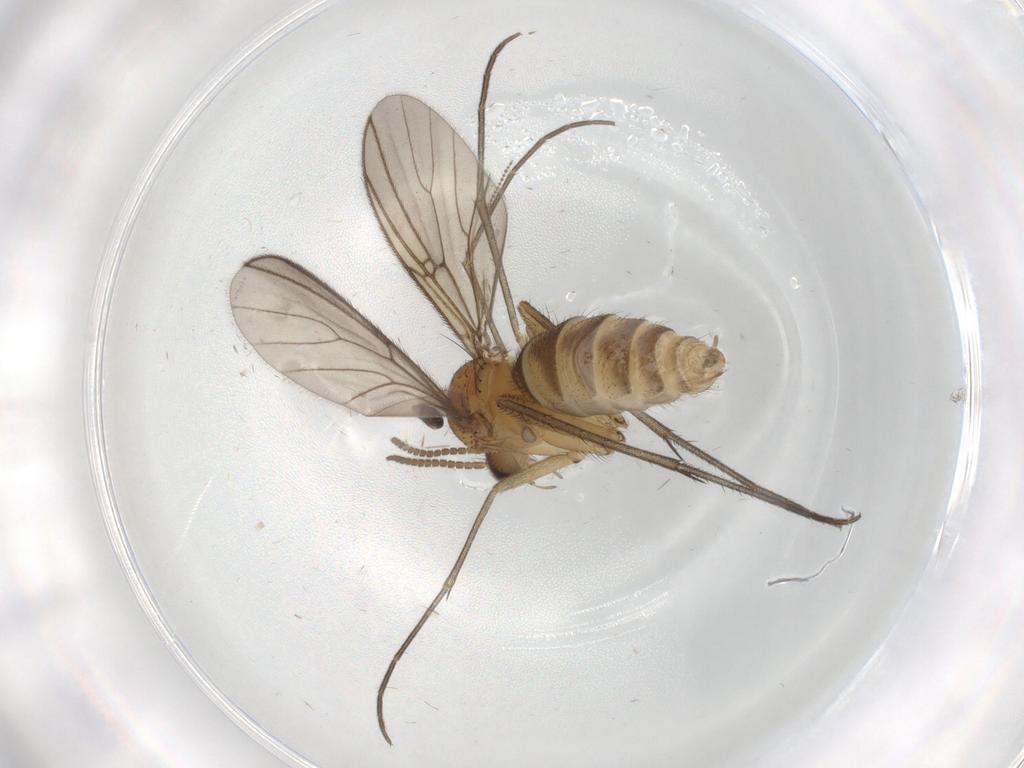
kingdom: Animalia
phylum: Arthropoda
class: Insecta
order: Diptera
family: Mycetophilidae
